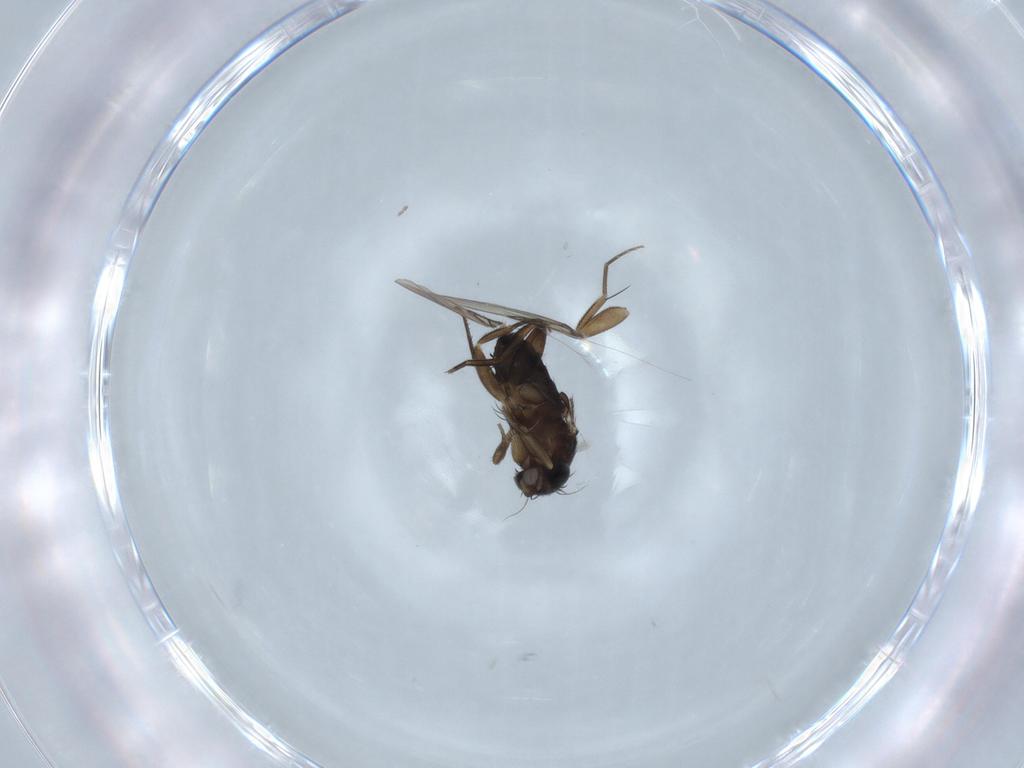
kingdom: Animalia
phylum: Arthropoda
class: Insecta
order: Diptera
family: Phoridae
